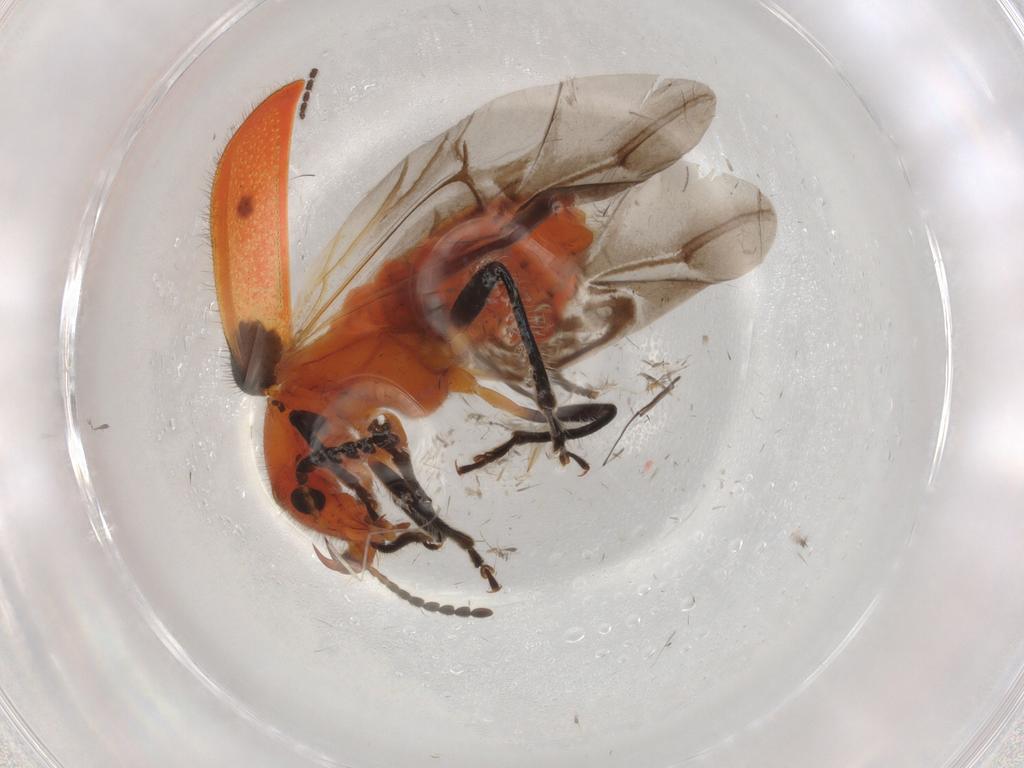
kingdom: Animalia
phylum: Arthropoda
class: Insecta
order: Coleoptera
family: Melyridae
